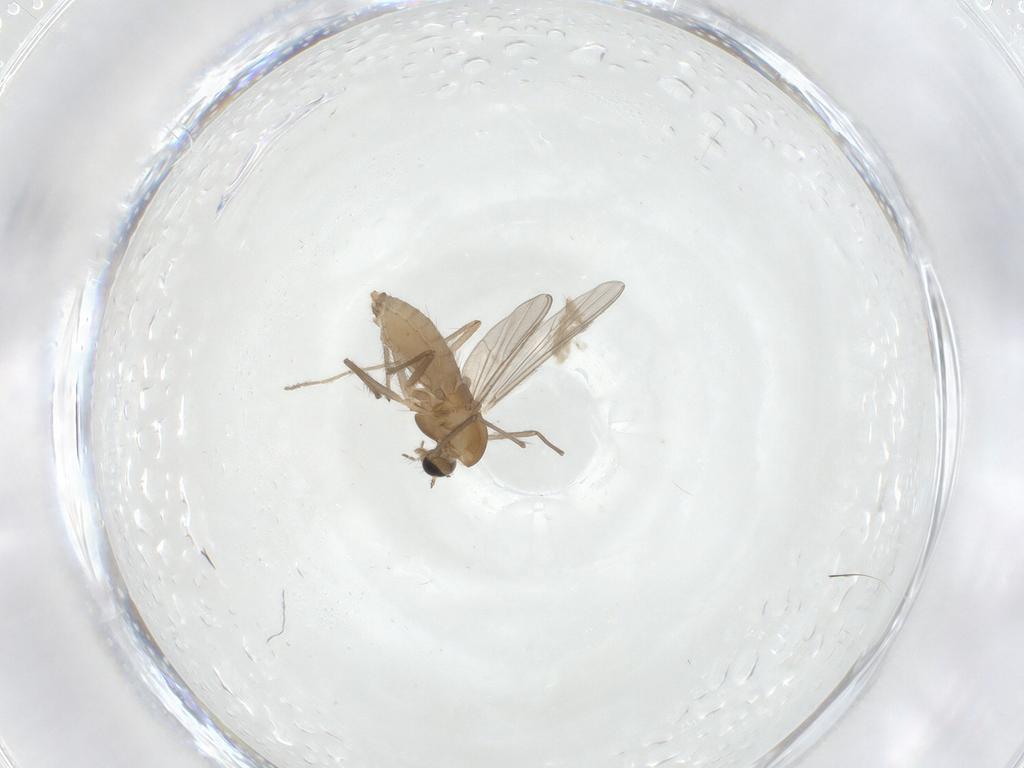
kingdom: Animalia
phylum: Arthropoda
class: Insecta
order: Diptera
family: Chironomidae
